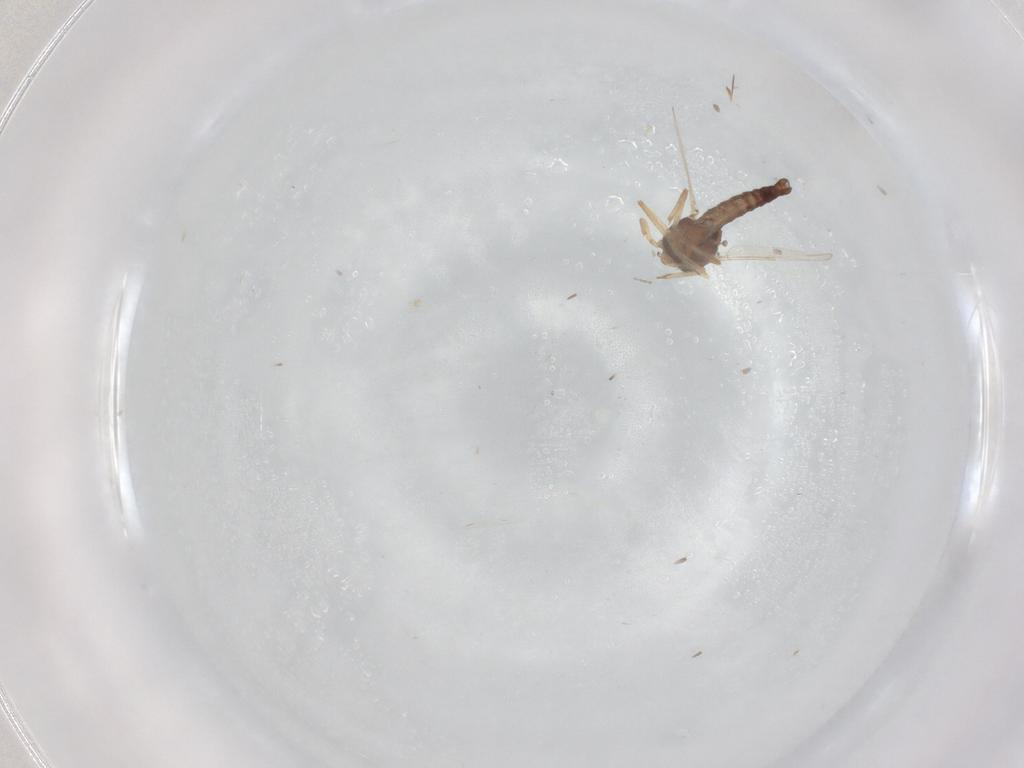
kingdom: Animalia
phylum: Arthropoda
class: Insecta
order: Diptera
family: Ceratopogonidae
